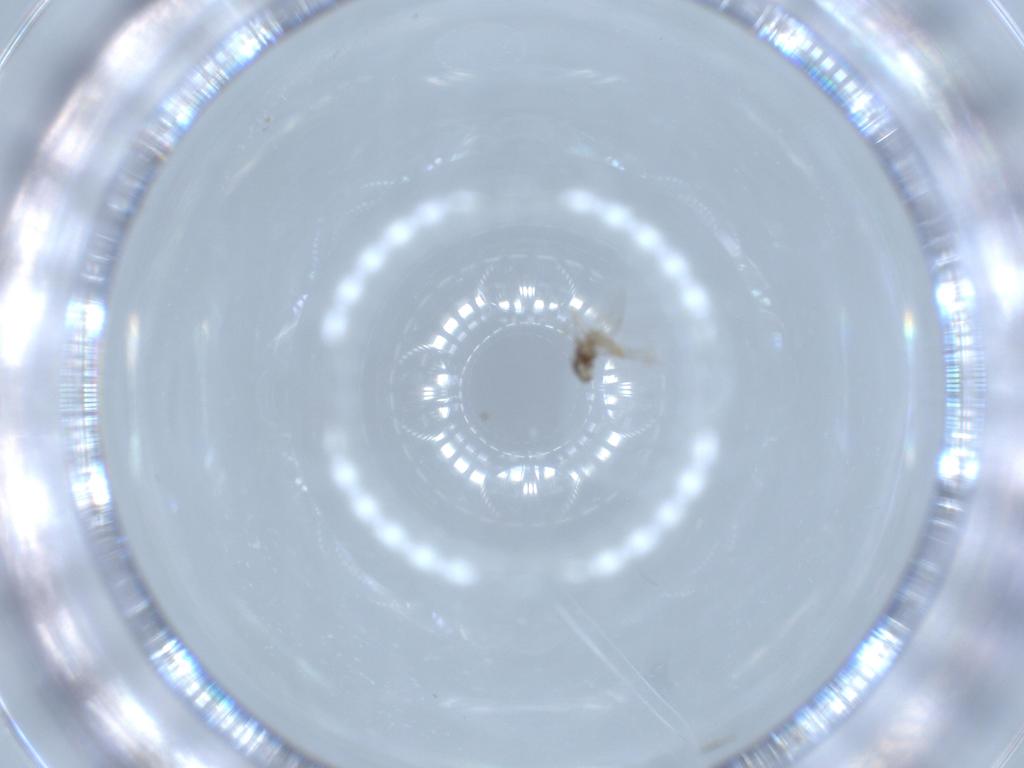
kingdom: Animalia
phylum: Arthropoda
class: Insecta
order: Diptera
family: Cecidomyiidae
